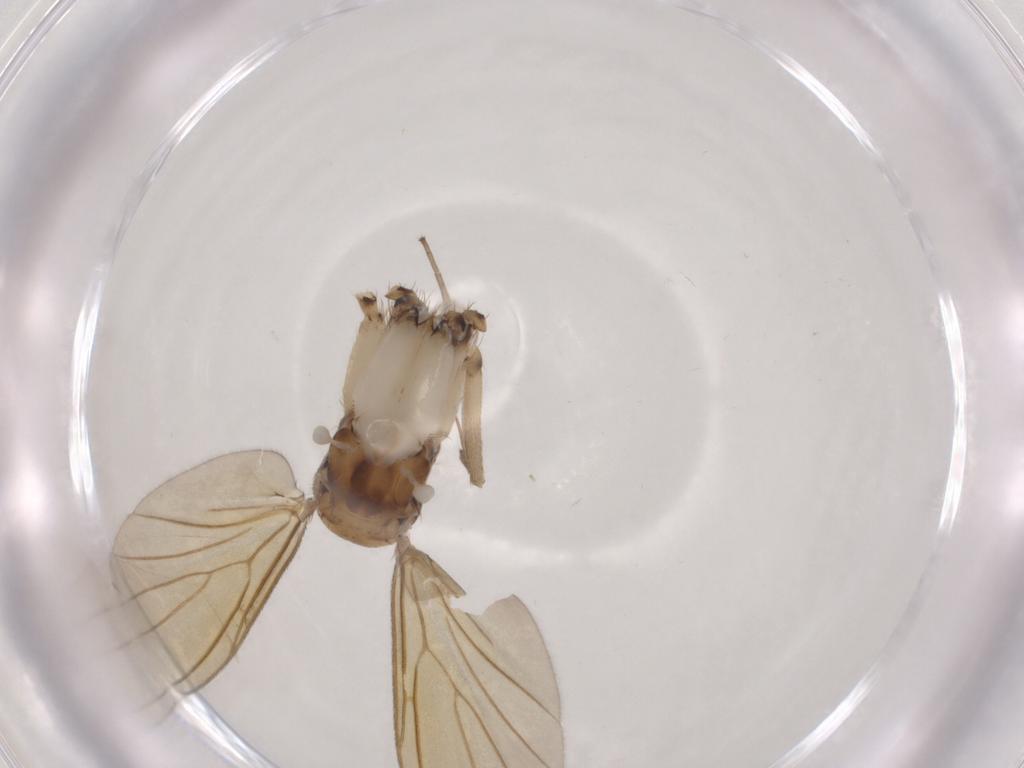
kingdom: Animalia
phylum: Arthropoda
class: Insecta
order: Diptera
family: Mycetophilidae
